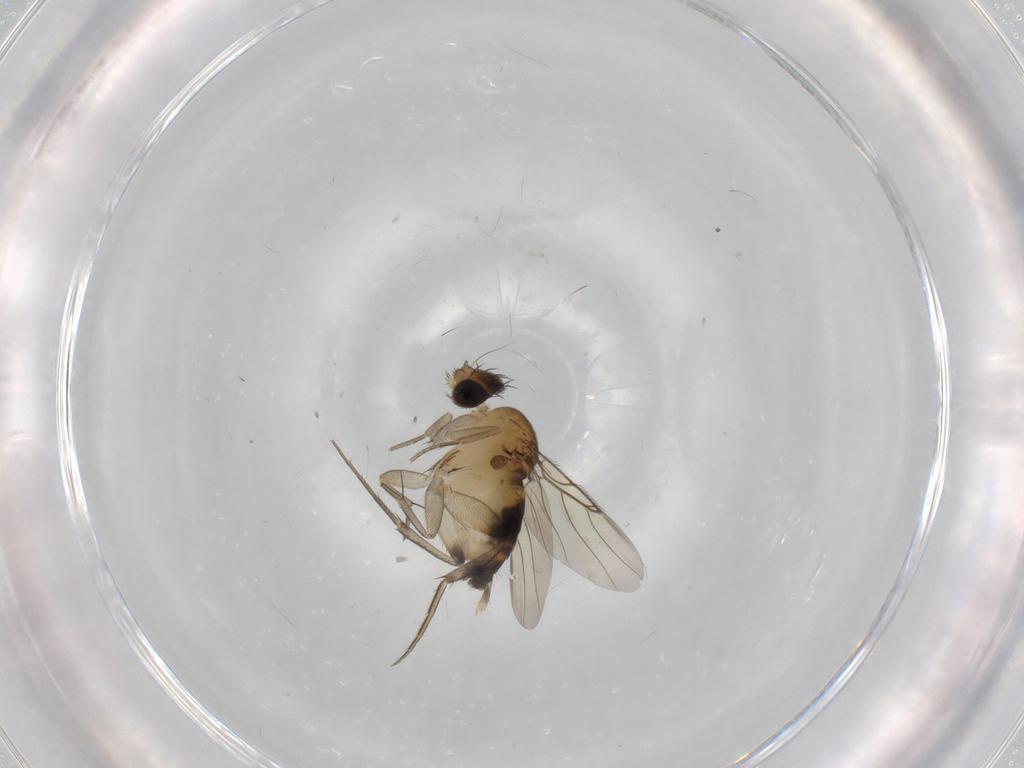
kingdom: Animalia
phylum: Arthropoda
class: Insecta
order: Diptera
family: Phoridae
